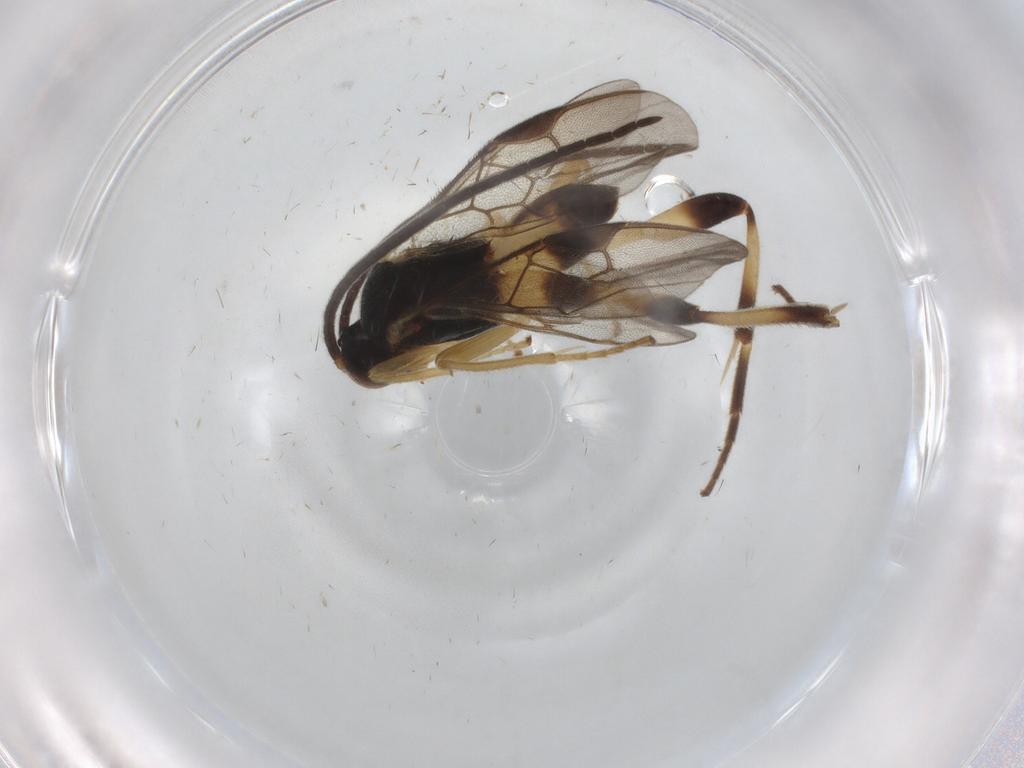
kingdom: Animalia
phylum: Arthropoda
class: Insecta
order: Hymenoptera
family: Braconidae
